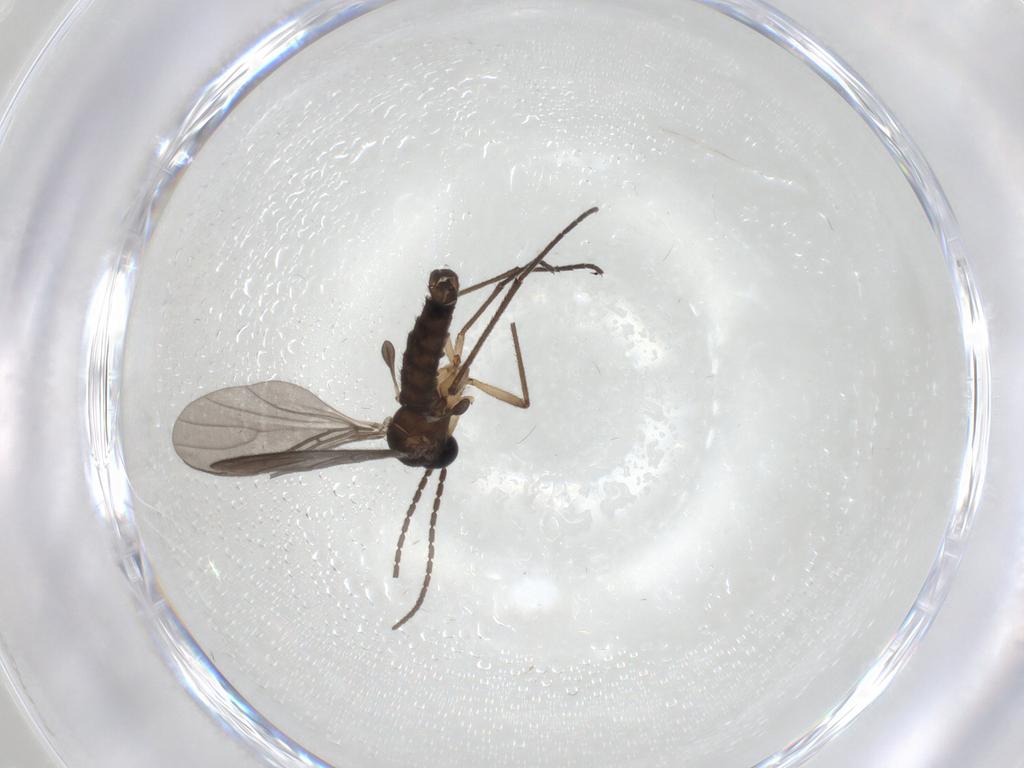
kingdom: Animalia
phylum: Arthropoda
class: Insecta
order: Diptera
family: Sciaridae
